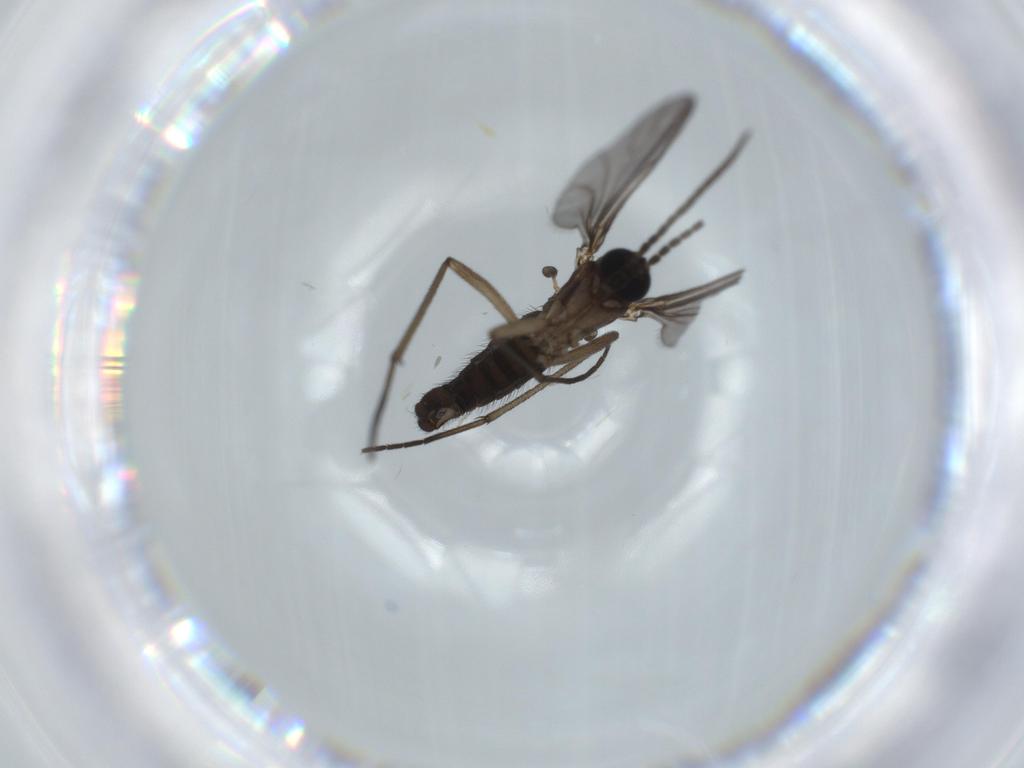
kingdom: Animalia
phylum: Arthropoda
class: Insecta
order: Diptera
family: Sciaridae
